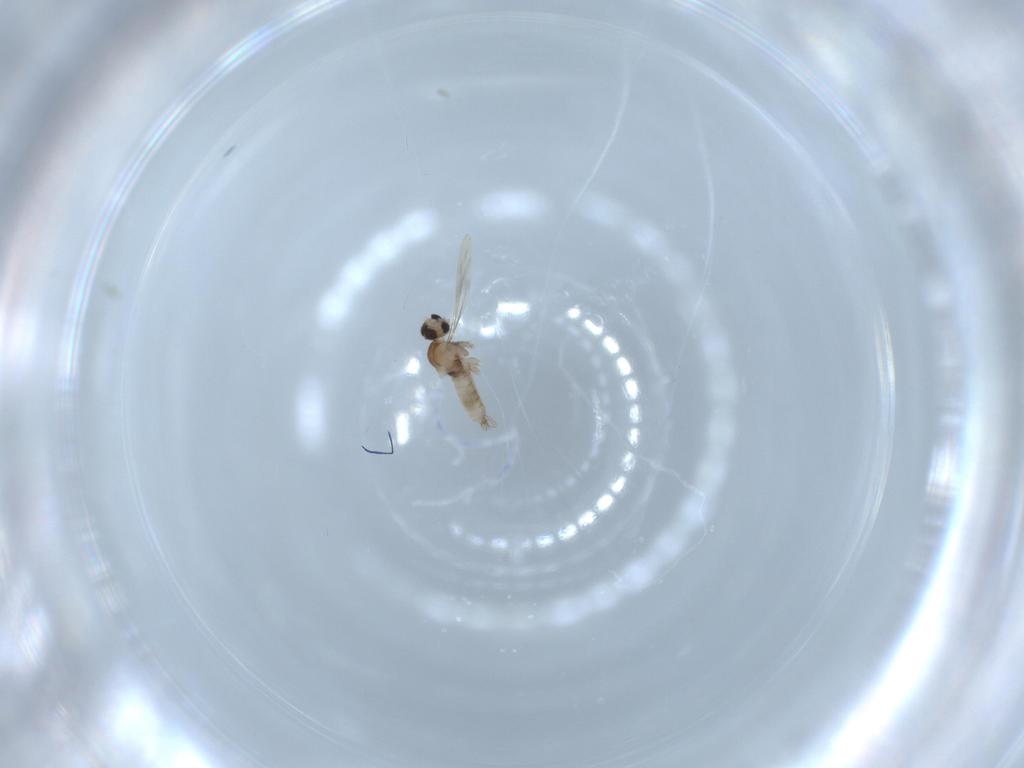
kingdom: Animalia
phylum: Arthropoda
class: Insecta
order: Diptera
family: Cecidomyiidae
